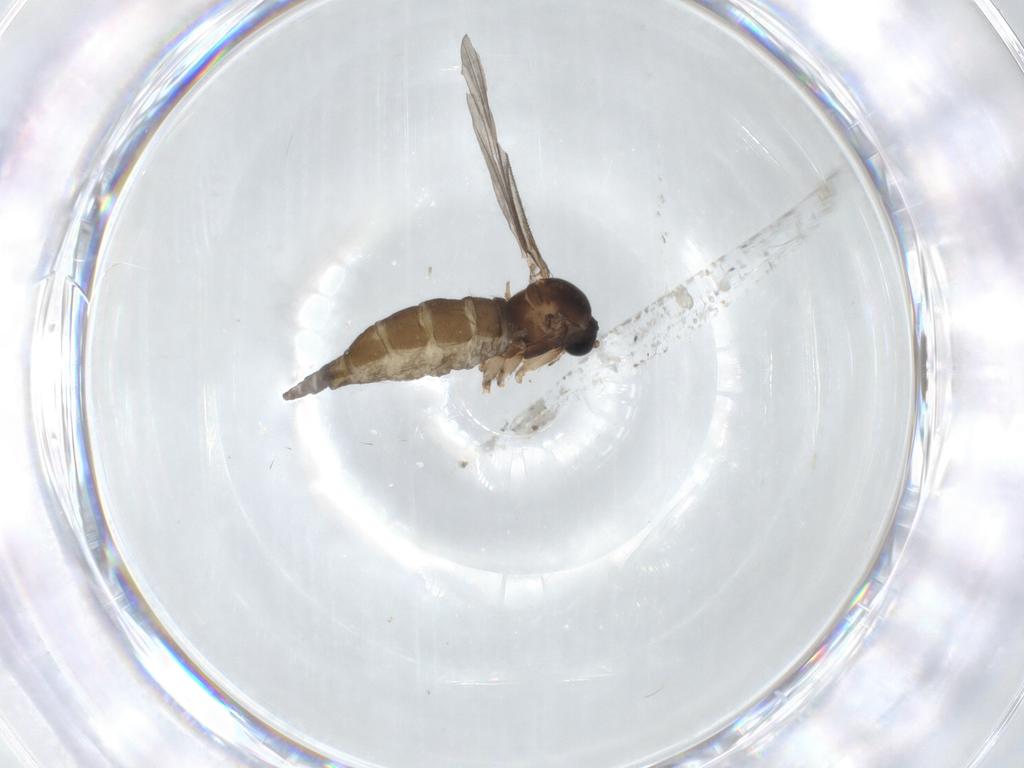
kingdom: Animalia
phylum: Arthropoda
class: Insecta
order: Diptera
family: Sciaridae
